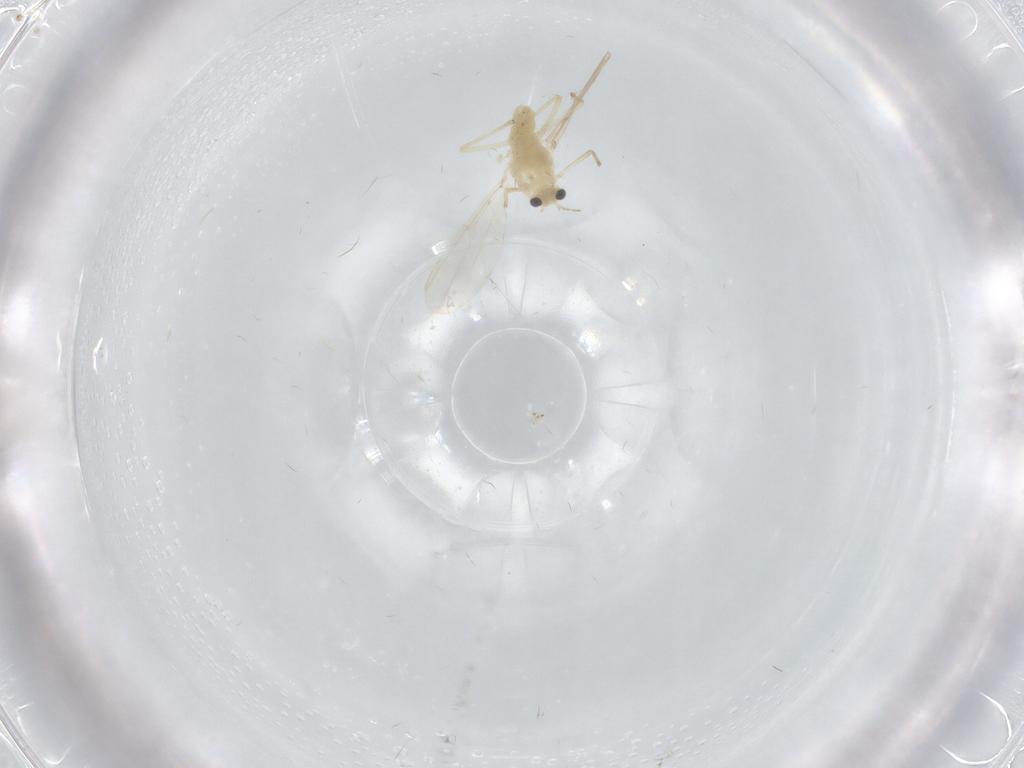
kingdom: Animalia
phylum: Arthropoda
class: Insecta
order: Diptera
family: Chironomidae
